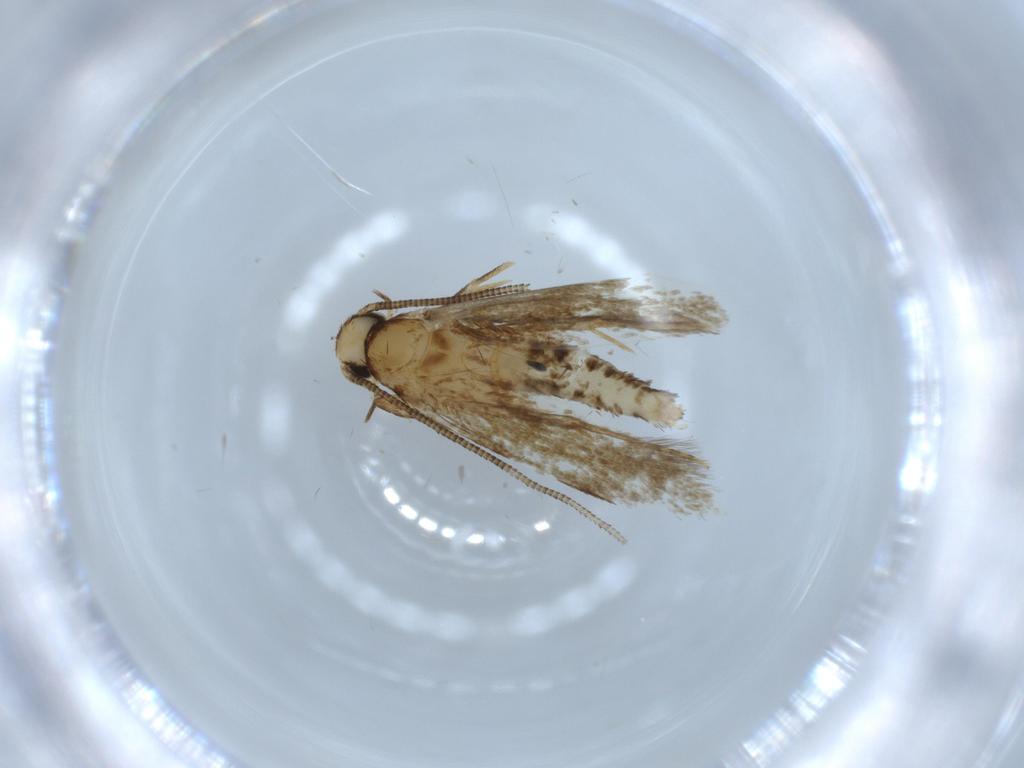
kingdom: Animalia
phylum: Arthropoda
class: Insecta
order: Lepidoptera
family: Tineidae
